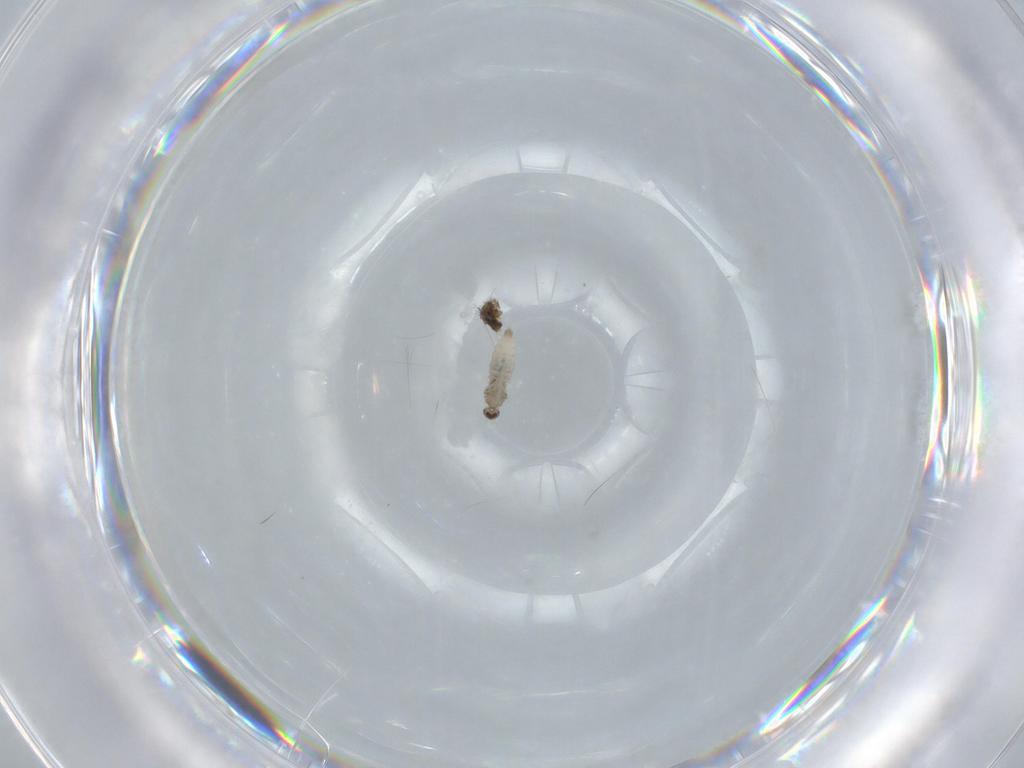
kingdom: Animalia
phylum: Arthropoda
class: Insecta
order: Diptera
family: Cecidomyiidae
